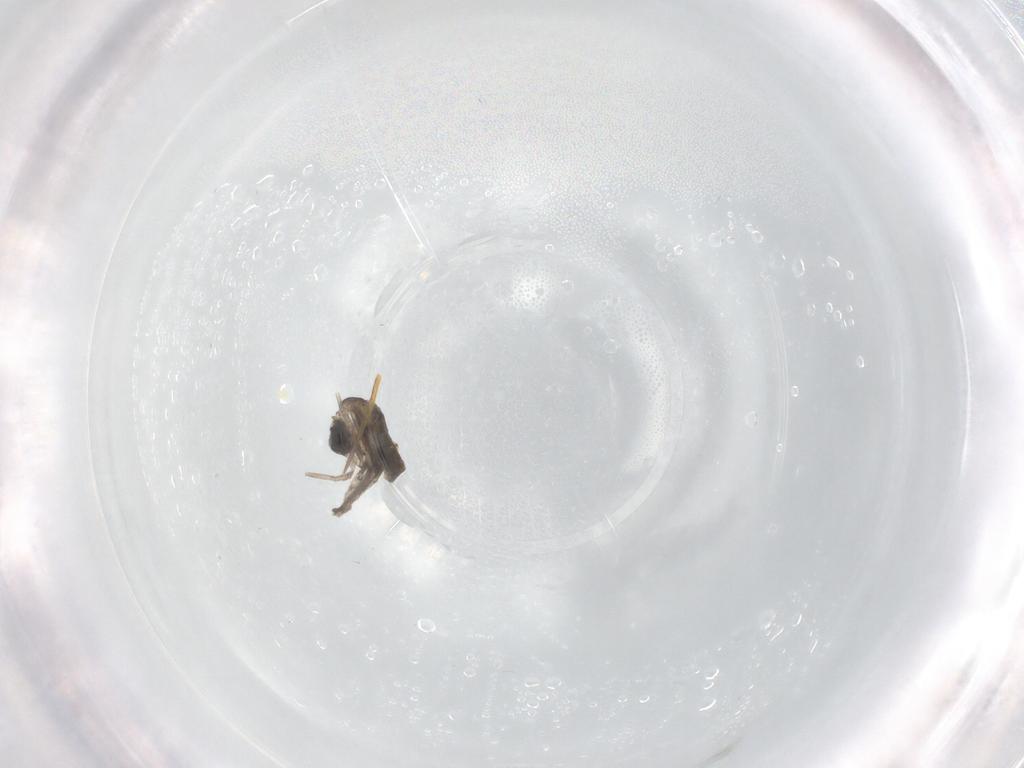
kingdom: Animalia
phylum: Arthropoda
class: Insecta
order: Diptera
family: Cecidomyiidae
